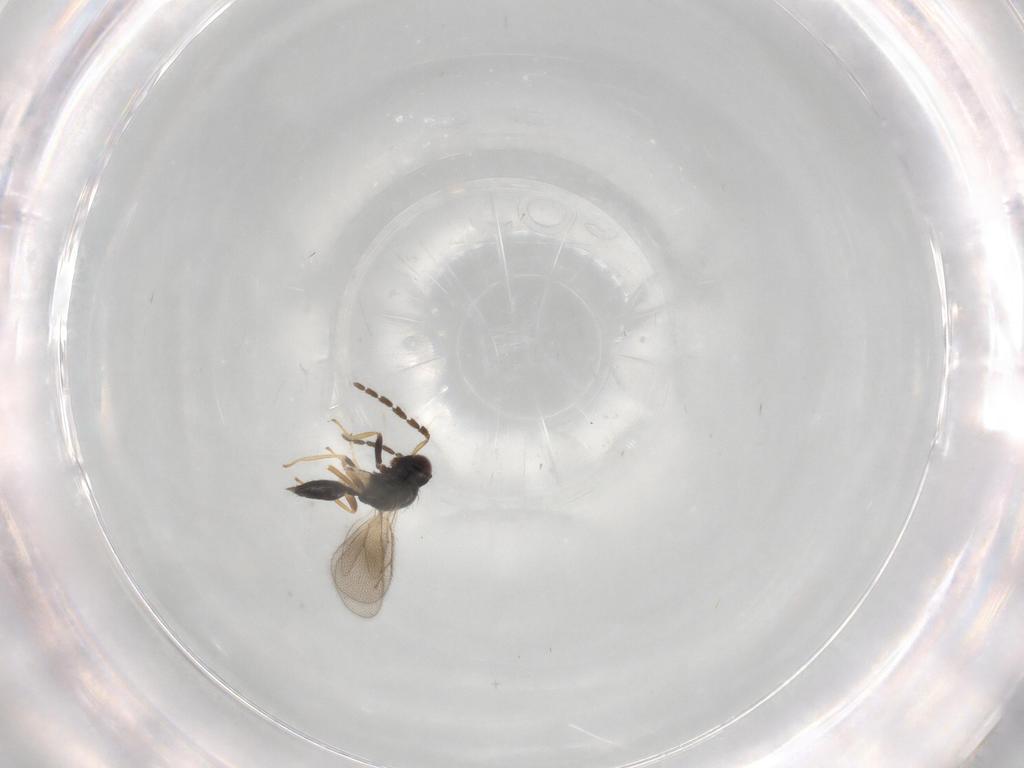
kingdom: Animalia
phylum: Arthropoda
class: Insecta
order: Hymenoptera
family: Eulophidae
